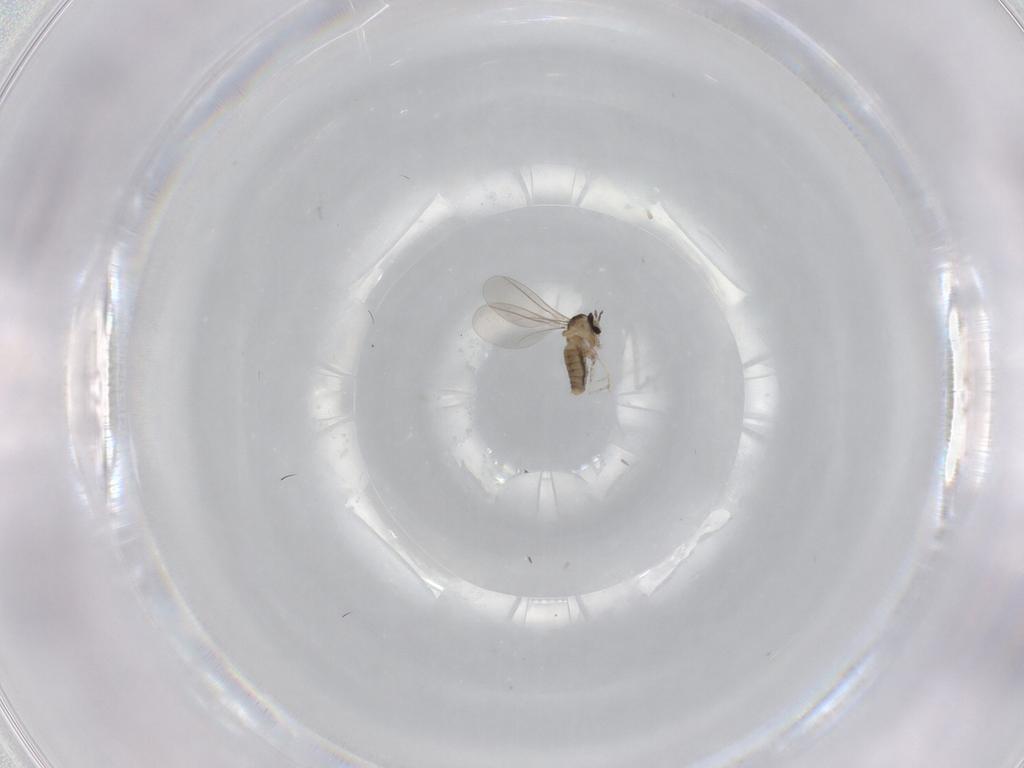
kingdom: Animalia
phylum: Arthropoda
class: Insecta
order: Diptera
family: Cecidomyiidae
